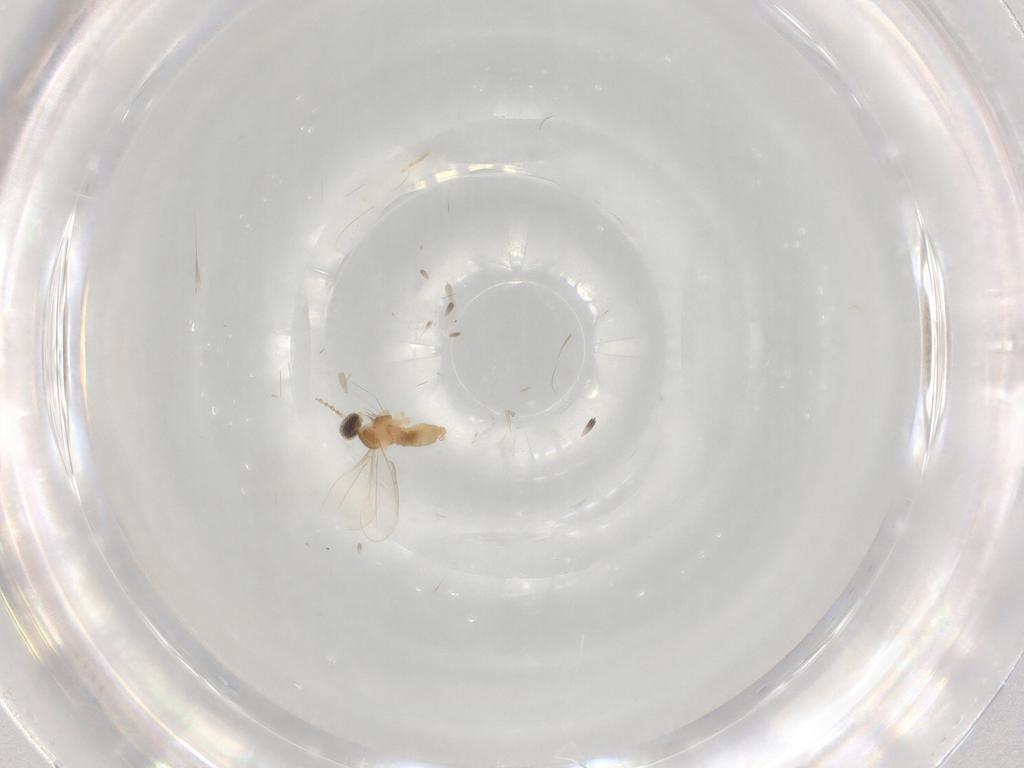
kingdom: Animalia
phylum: Arthropoda
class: Insecta
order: Diptera
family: Cecidomyiidae
